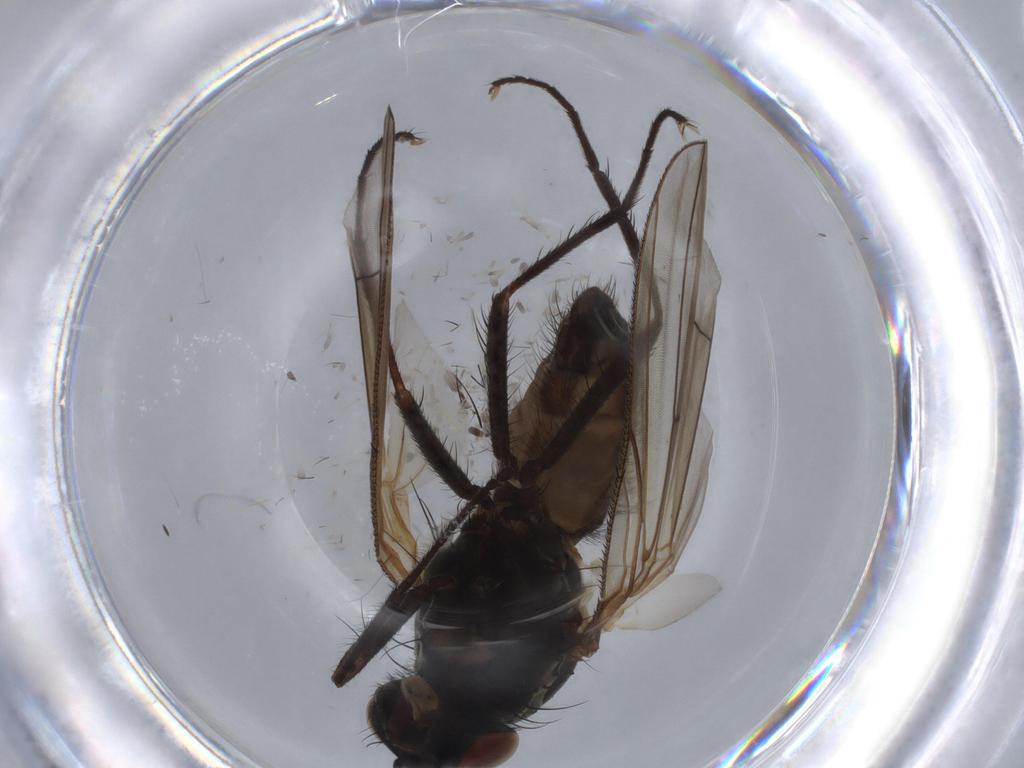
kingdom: Animalia
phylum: Arthropoda
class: Insecta
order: Diptera
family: Anthomyiidae
